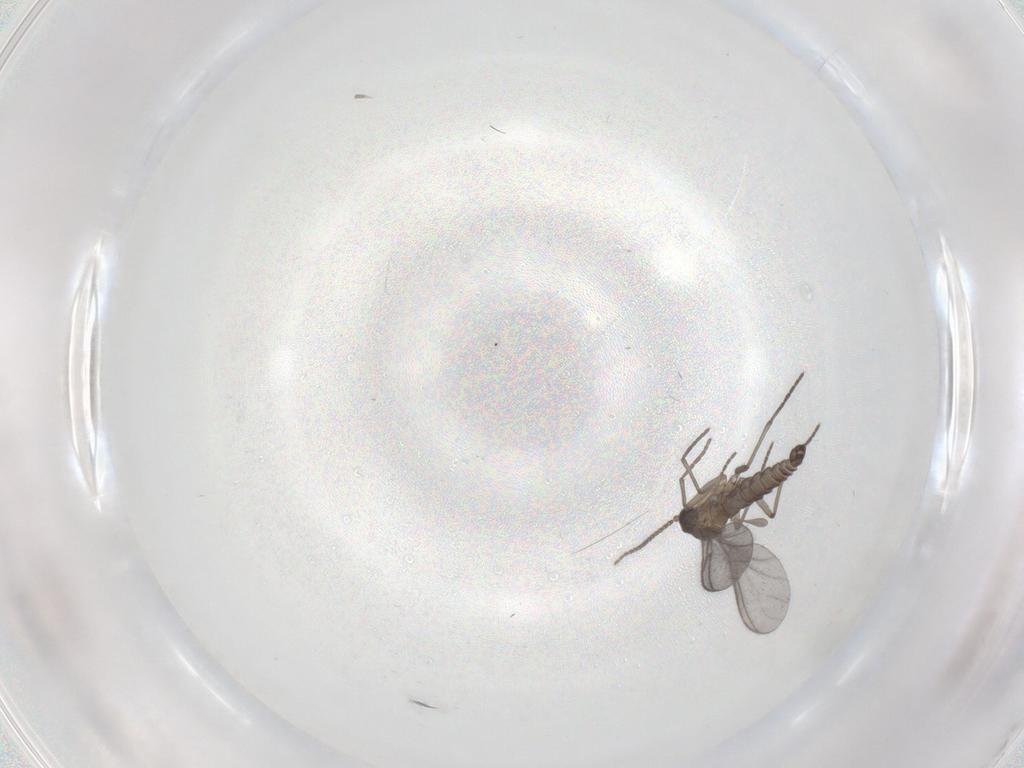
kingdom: Animalia
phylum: Arthropoda
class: Insecta
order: Diptera
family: Sciaridae
